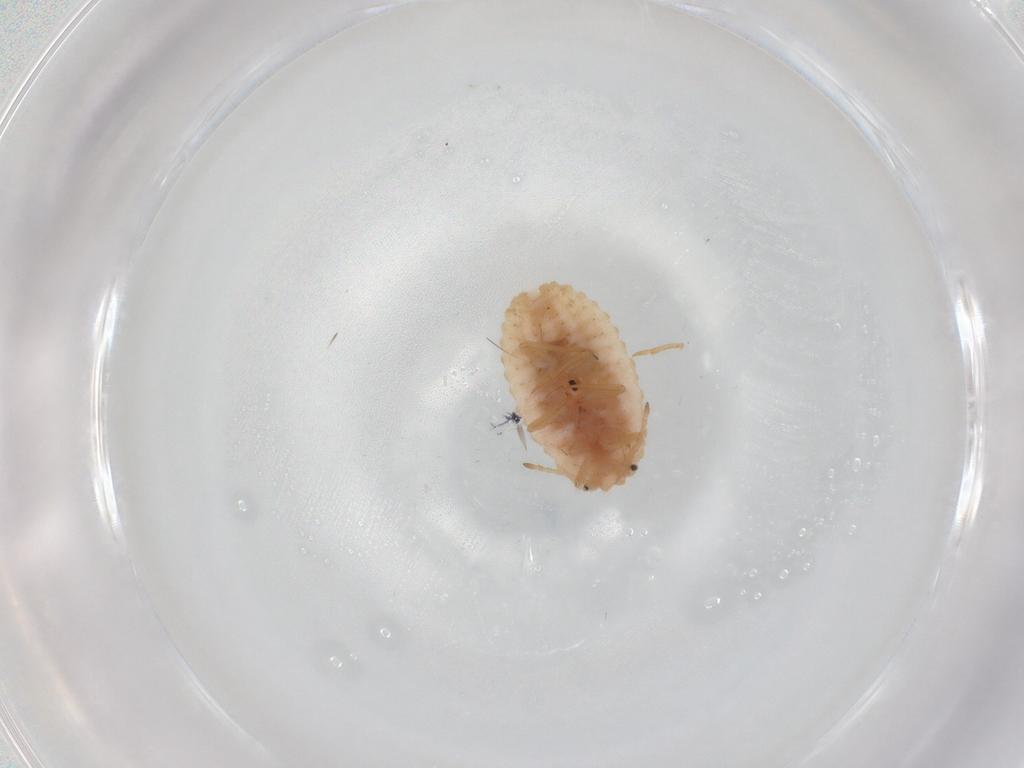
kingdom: Animalia
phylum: Arthropoda
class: Insecta
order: Hemiptera
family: Coccoidea_incertae_sedis
